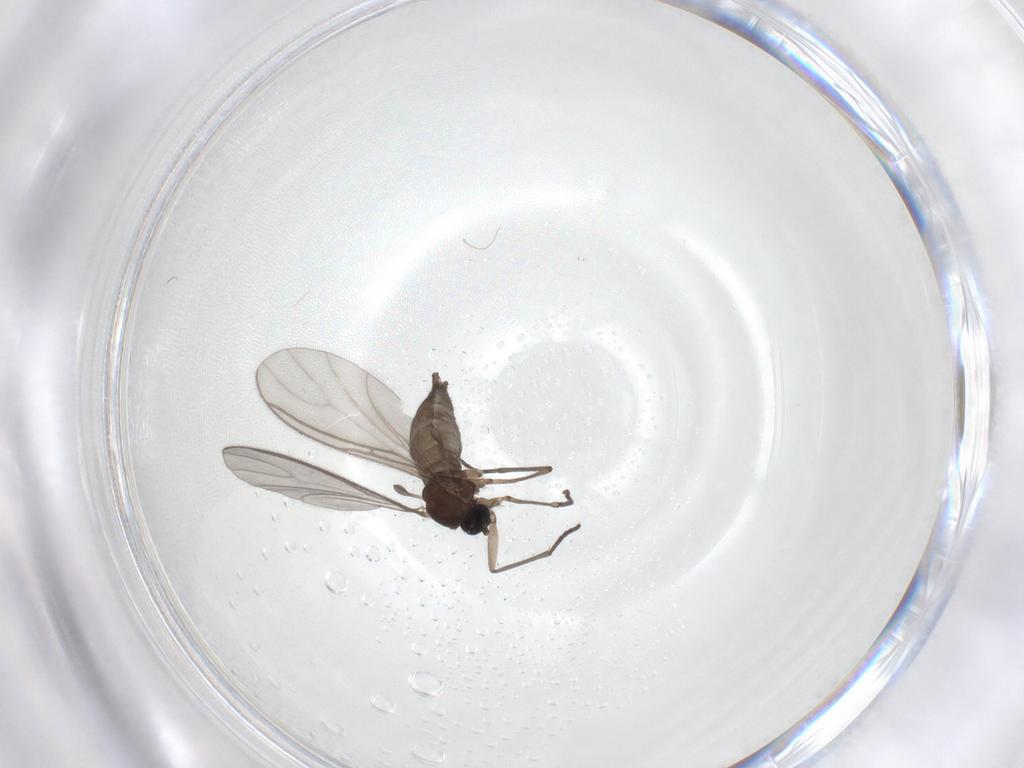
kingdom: Animalia
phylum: Arthropoda
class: Insecta
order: Diptera
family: Sciaridae
